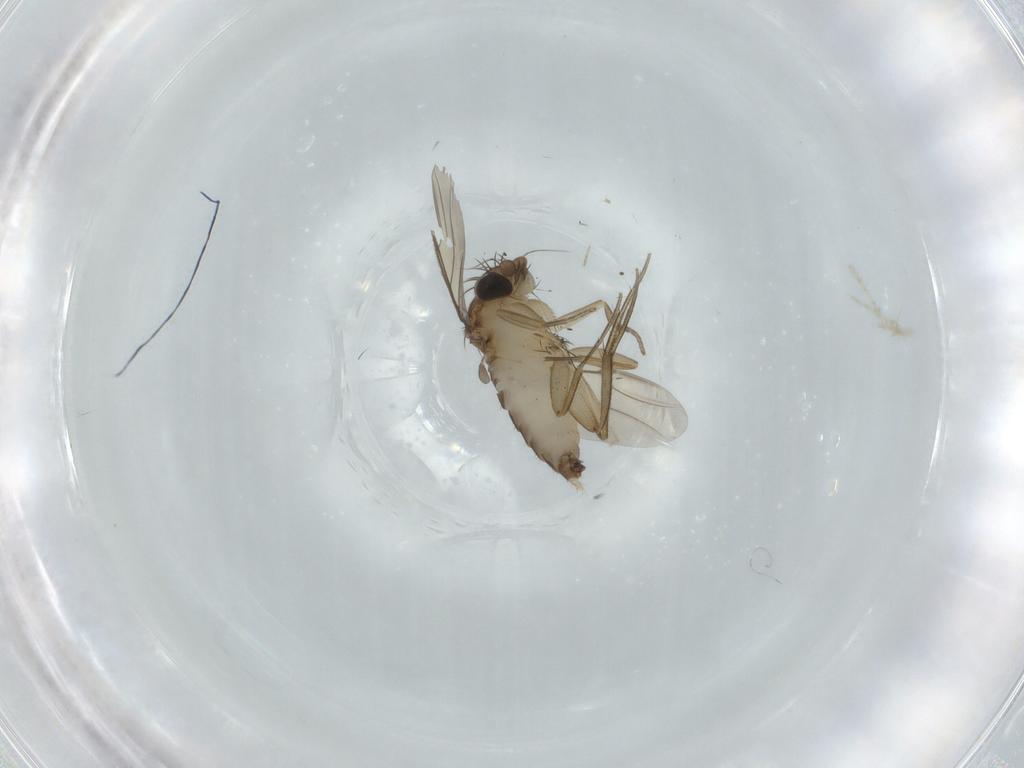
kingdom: Animalia
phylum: Arthropoda
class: Insecta
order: Diptera
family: Phoridae
